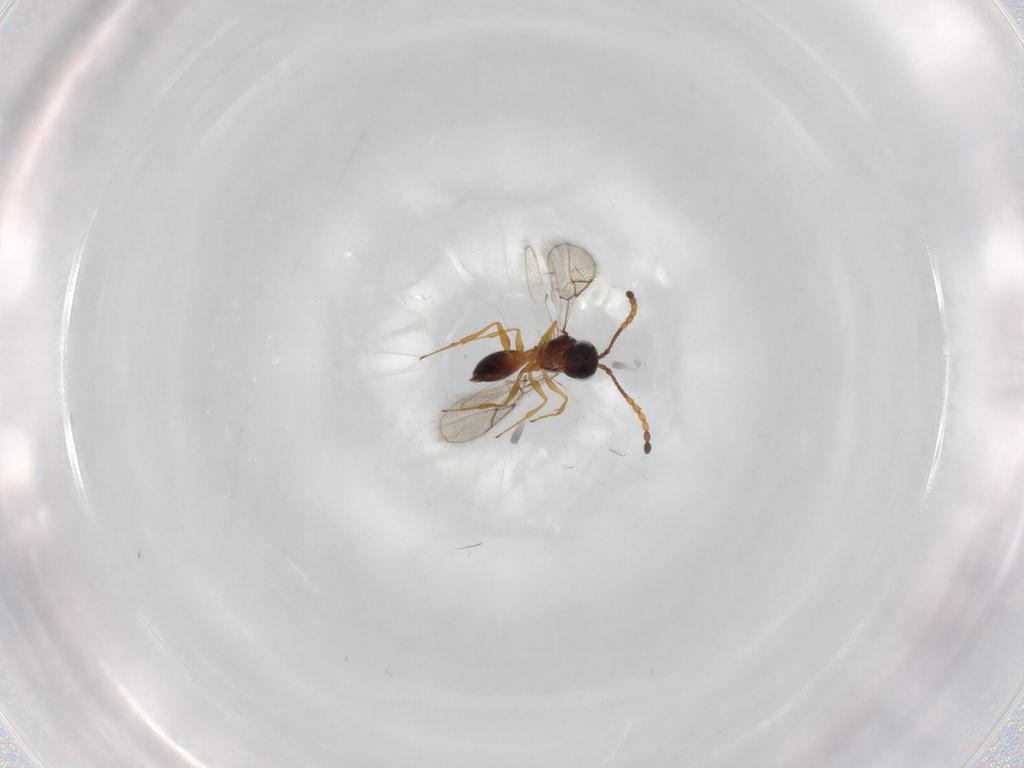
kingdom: Animalia
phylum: Arthropoda
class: Insecta
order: Hymenoptera
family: Figitidae
